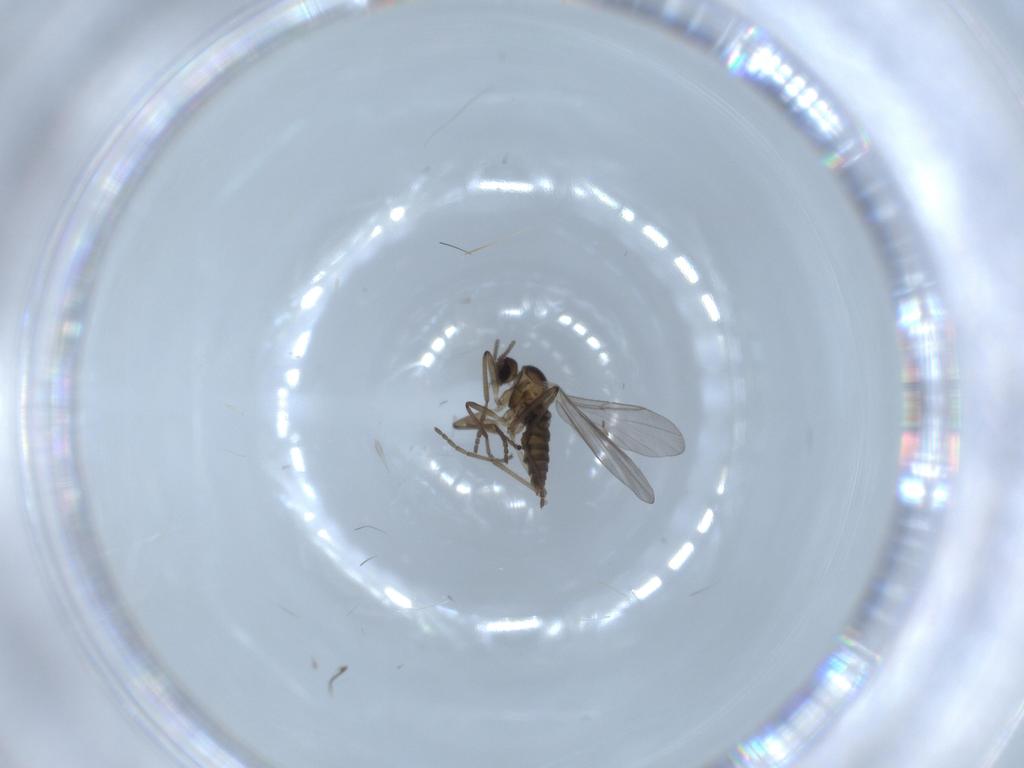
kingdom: Animalia
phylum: Arthropoda
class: Insecta
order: Diptera
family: Cecidomyiidae
